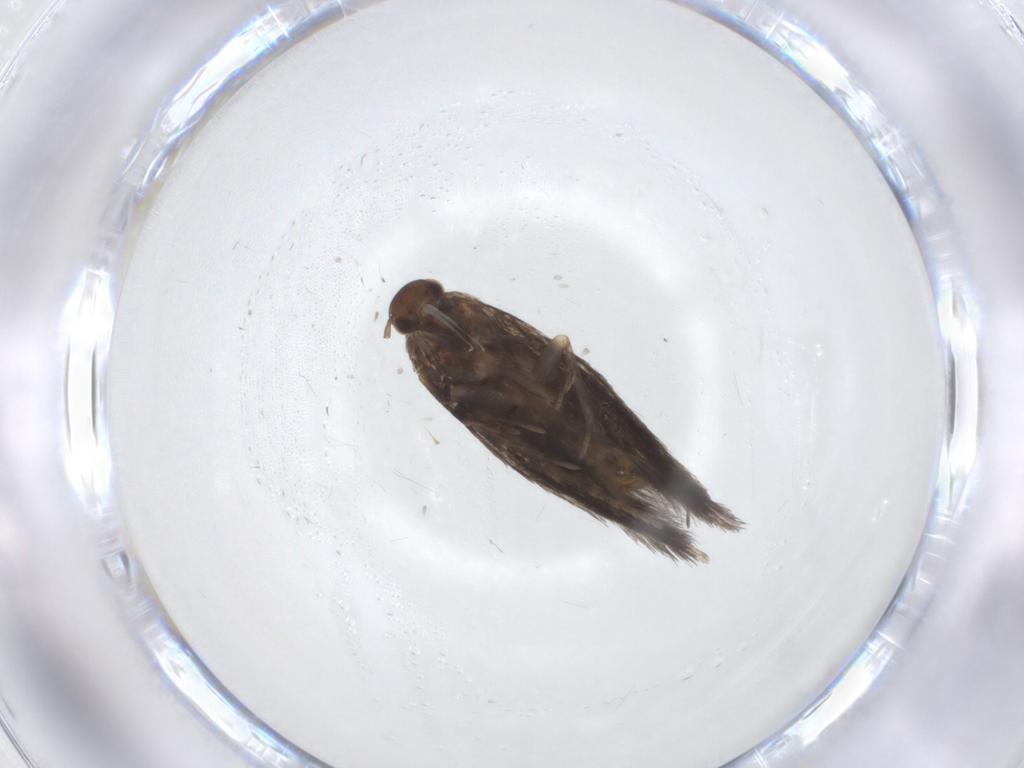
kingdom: Animalia
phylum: Arthropoda
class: Insecta
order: Lepidoptera
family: Elachistidae
